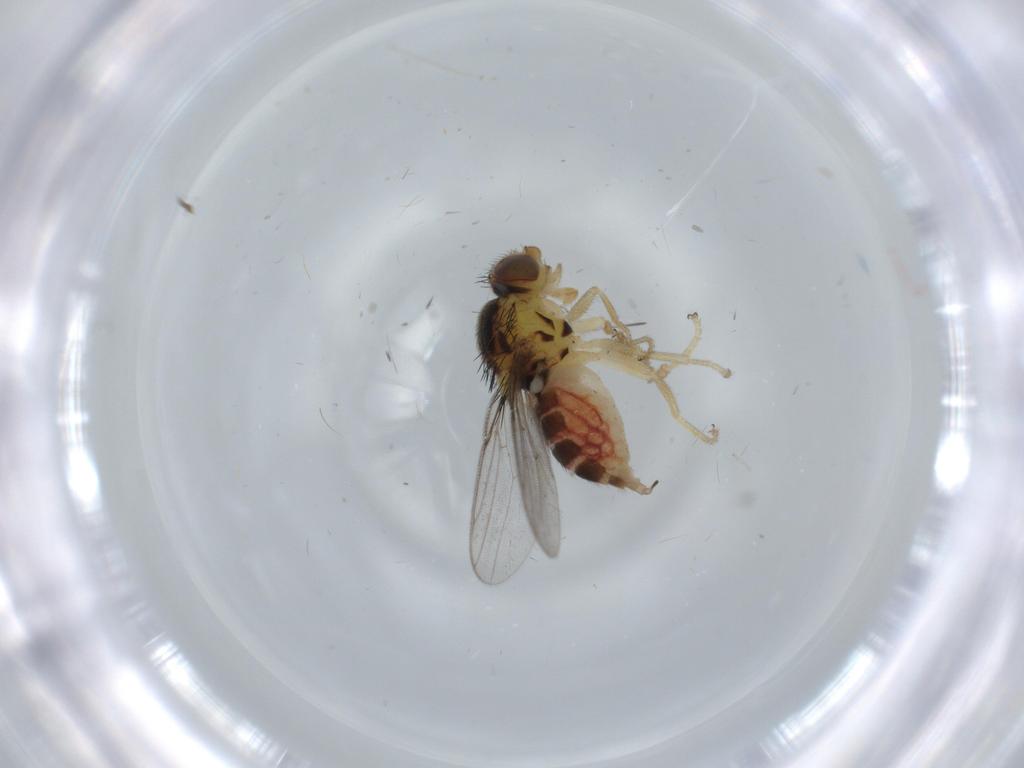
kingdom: Animalia
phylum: Arthropoda
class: Insecta
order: Diptera
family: Chloropidae
